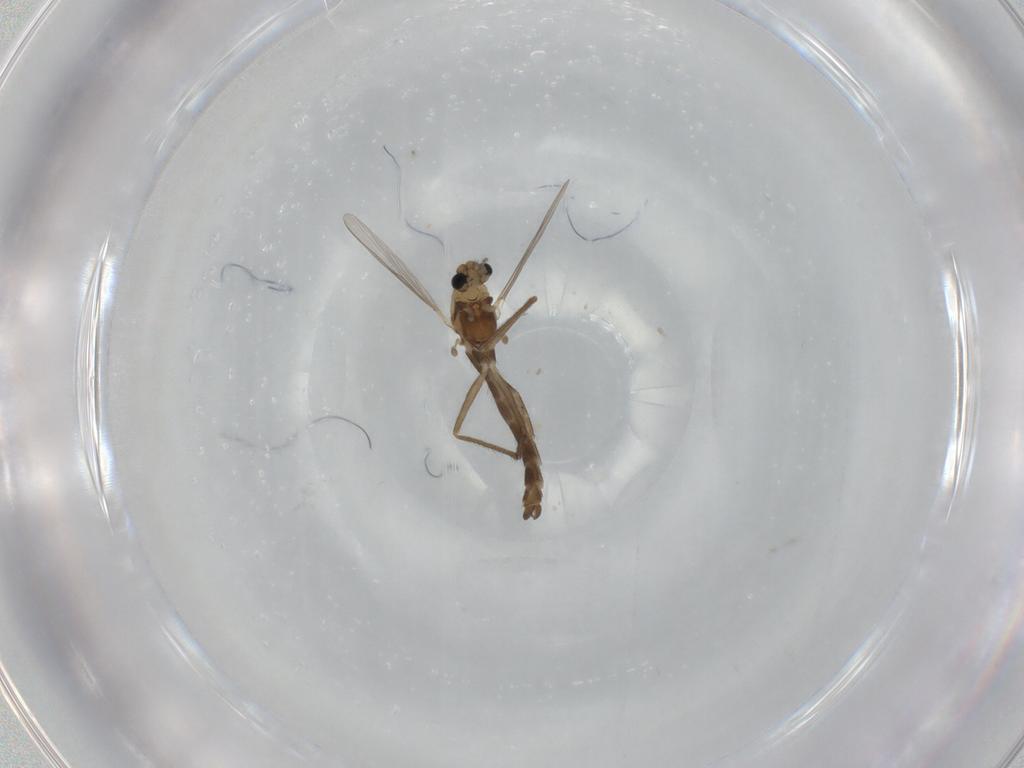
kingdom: Animalia
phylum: Arthropoda
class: Insecta
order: Diptera
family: Chironomidae
